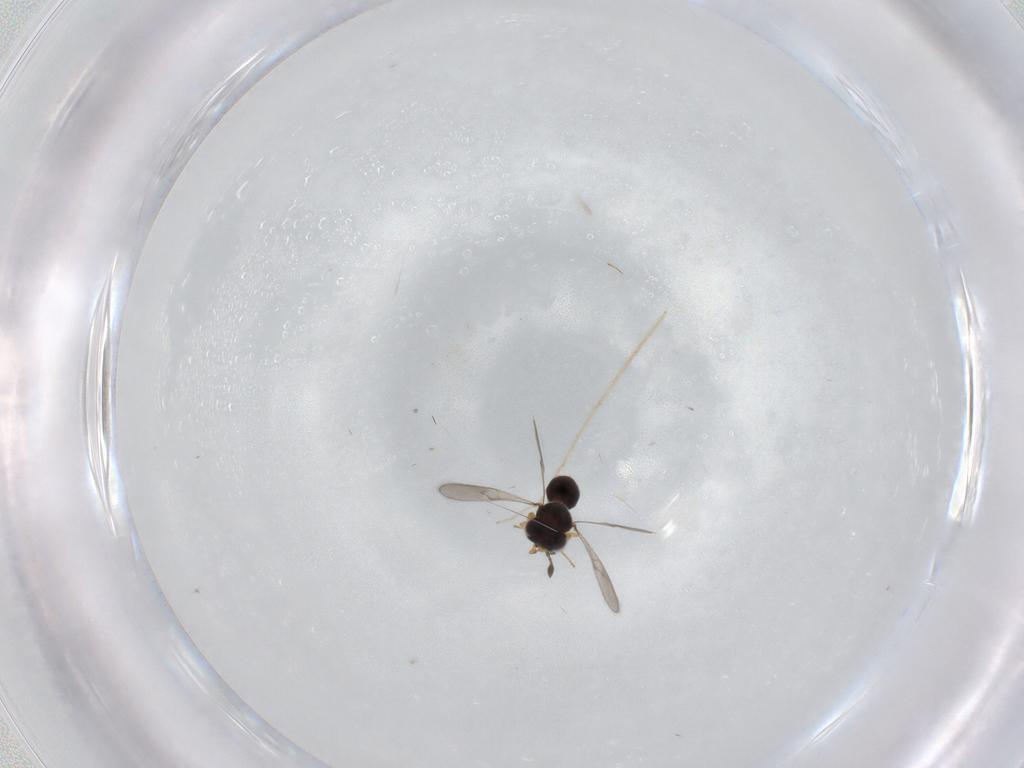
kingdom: Animalia
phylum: Arthropoda
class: Insecta
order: Hymenoptera
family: Scelionidae
